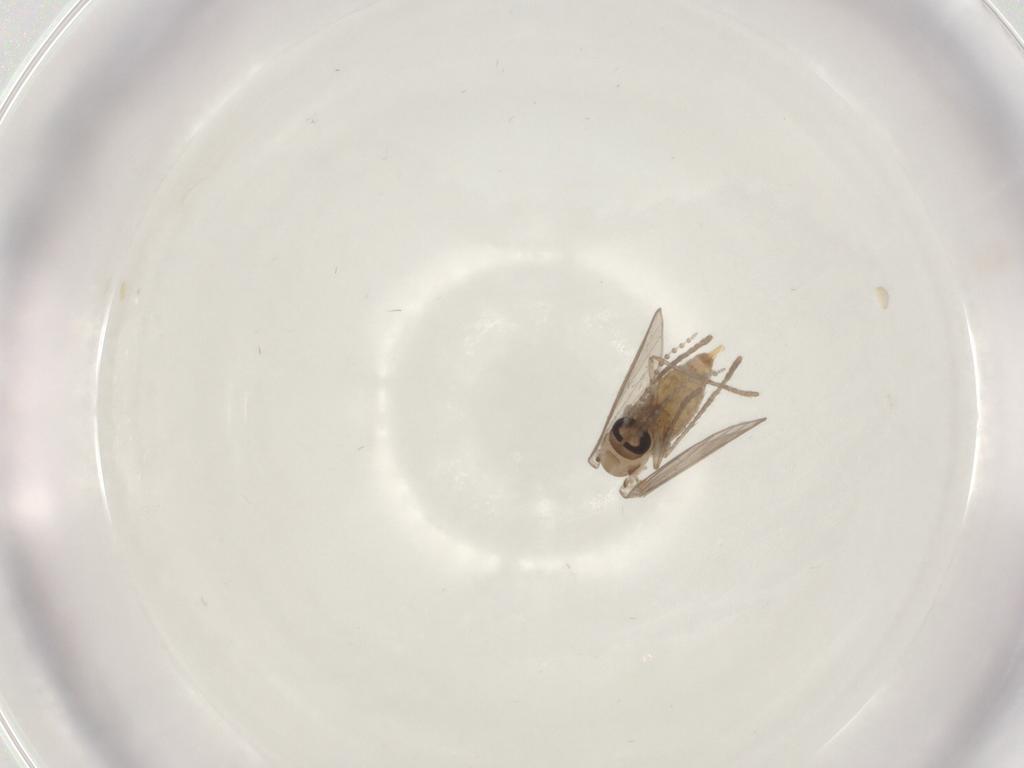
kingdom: Animalia
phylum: Arthropoda
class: Insecta
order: Diptera
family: Psychodidae
